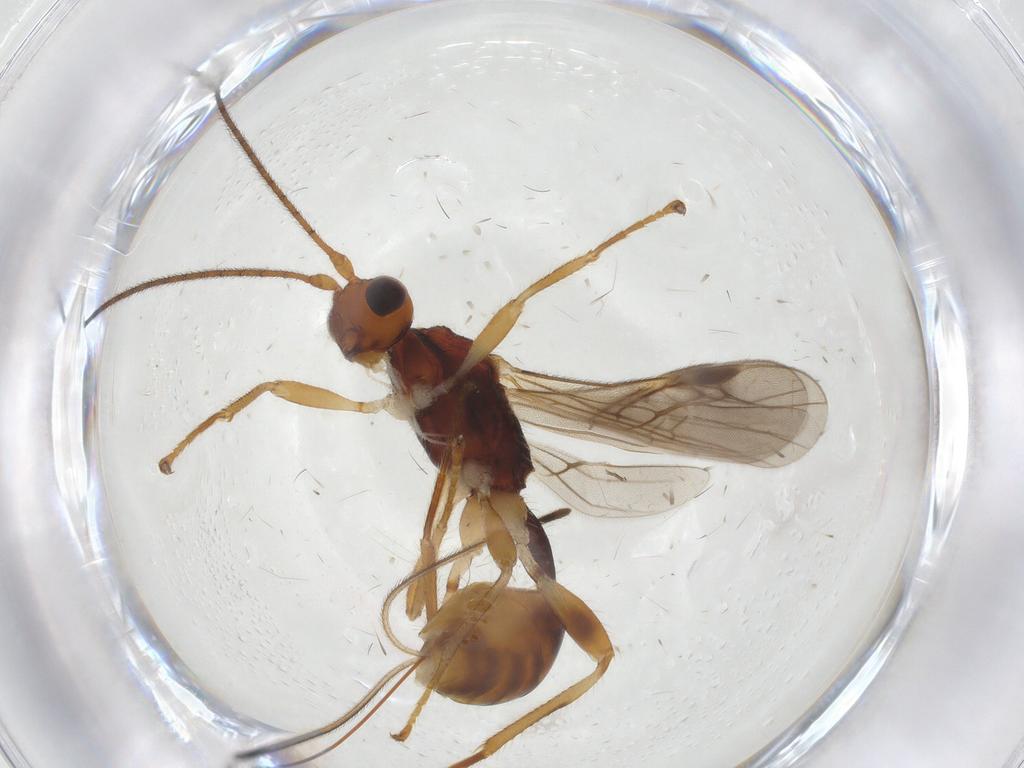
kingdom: Animalia
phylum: Arthropoda
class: Insecta
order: Hymenoptera
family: Braconidae
